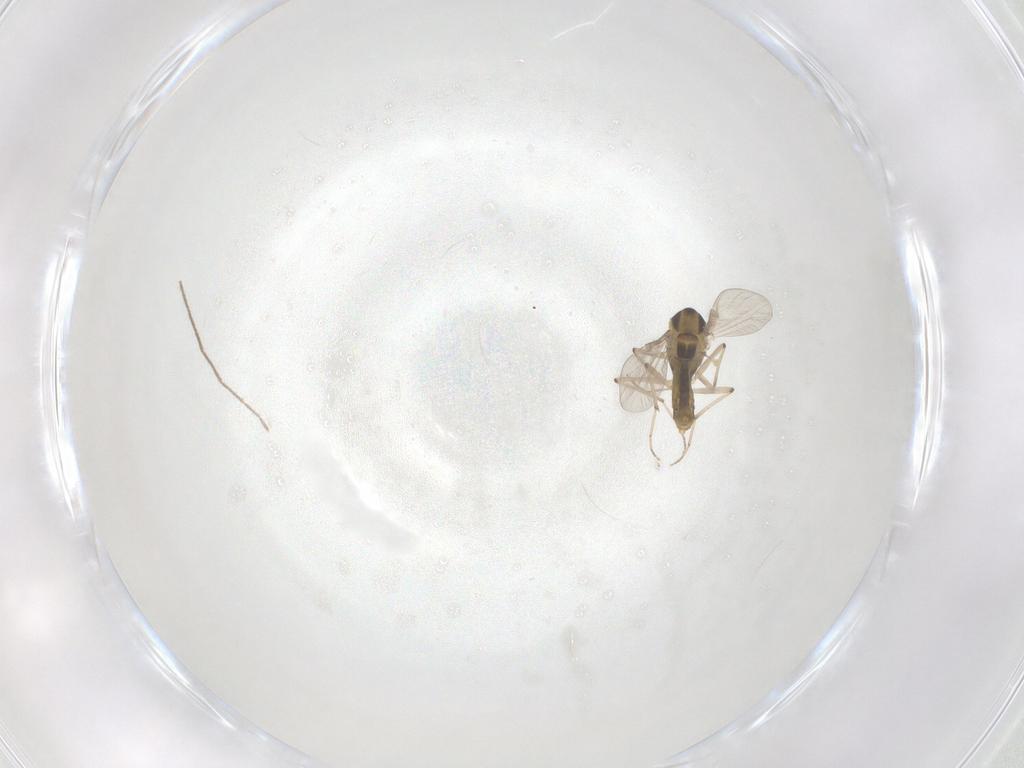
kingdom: Animalia
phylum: Arthropoda
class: Insecta
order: Diptera
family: Chironomidae
